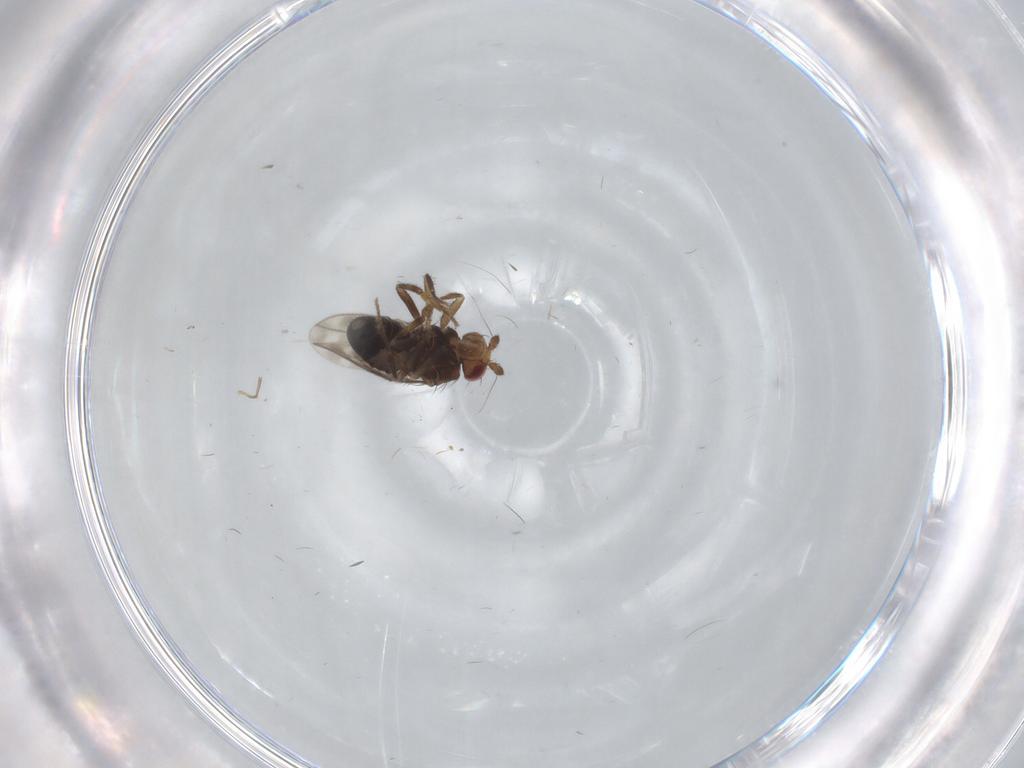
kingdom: Animalia
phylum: Arthropoda
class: Insecta
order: Diptera
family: Sphaeroceridae
